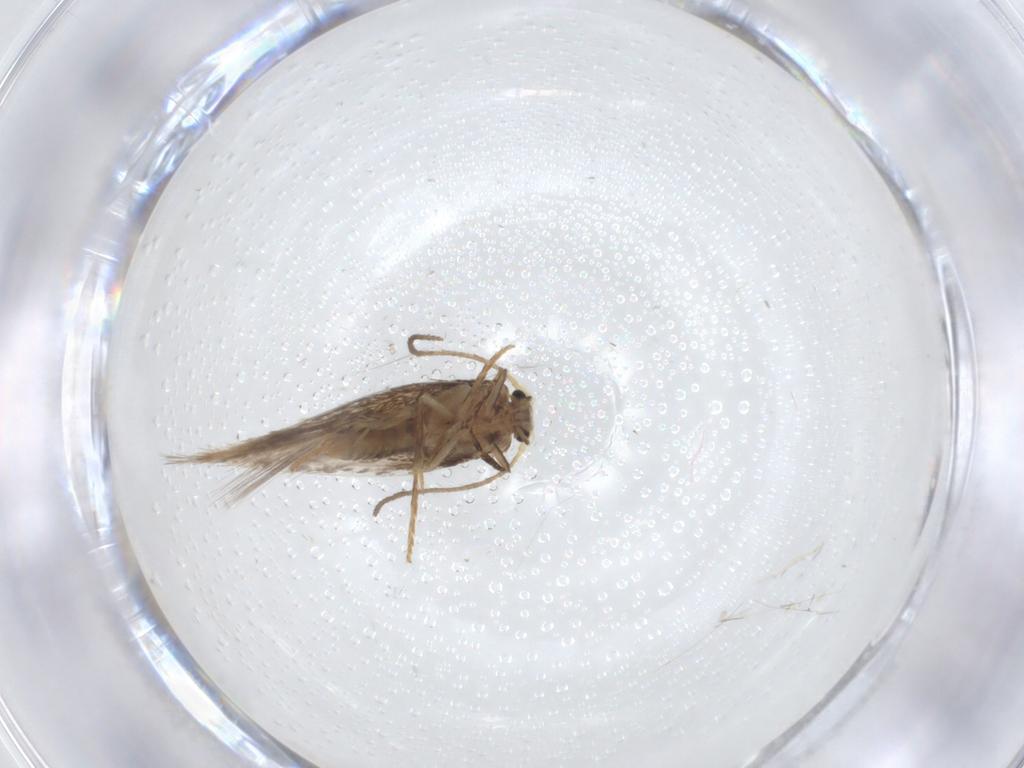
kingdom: Animalia
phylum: Arthropoda
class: Insecta
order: Lepidoptera
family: Nepticulidae
